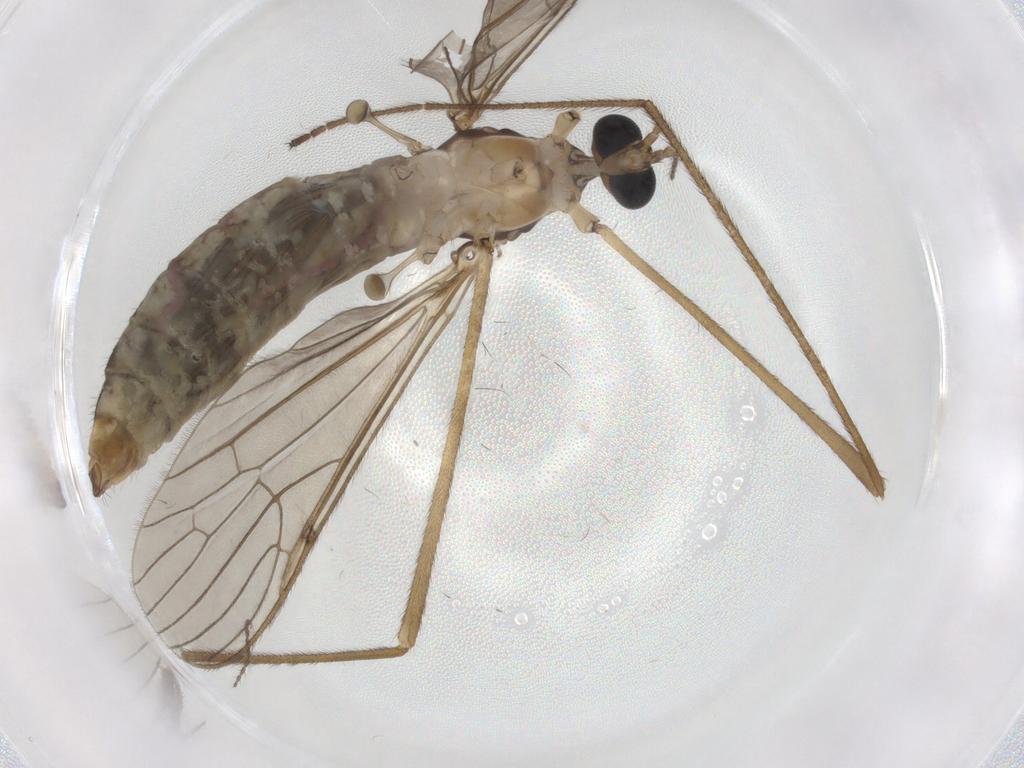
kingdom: Animalia
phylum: Arthropoda
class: Insecta
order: Diptera
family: Limoniidae
